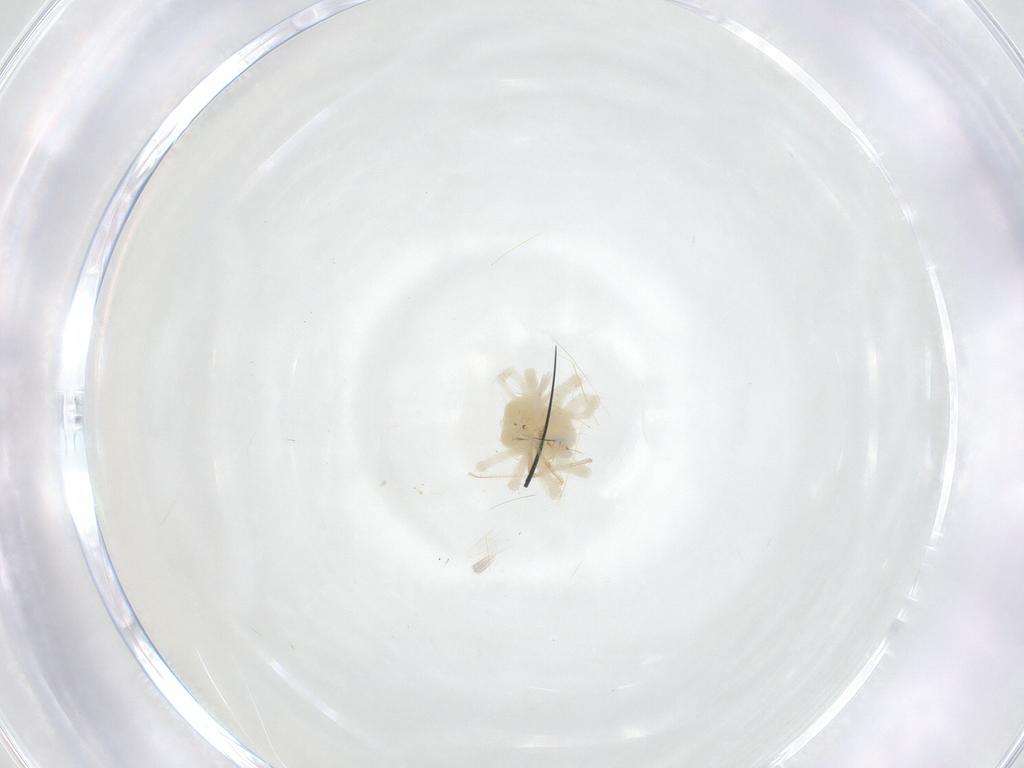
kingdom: Animalia
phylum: Arthropoda
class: Arachnida
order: Trombidiformes
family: Anystidae
